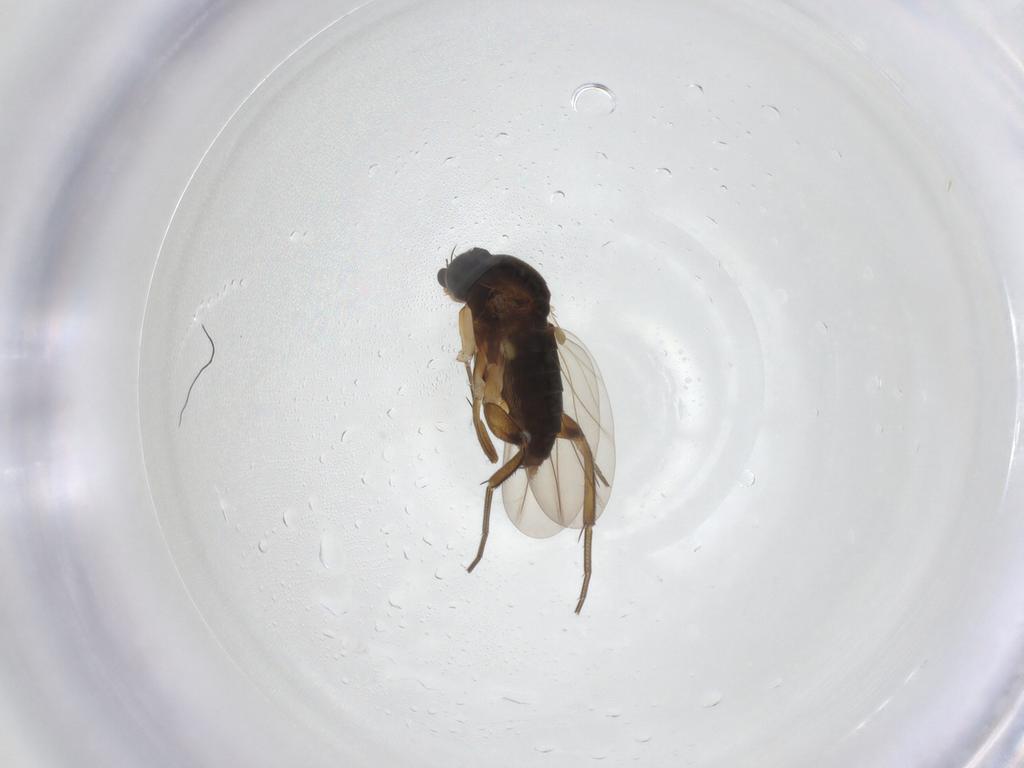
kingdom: Animalia
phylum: Arthropoda
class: Insecta
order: Diptera
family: Phoridae
